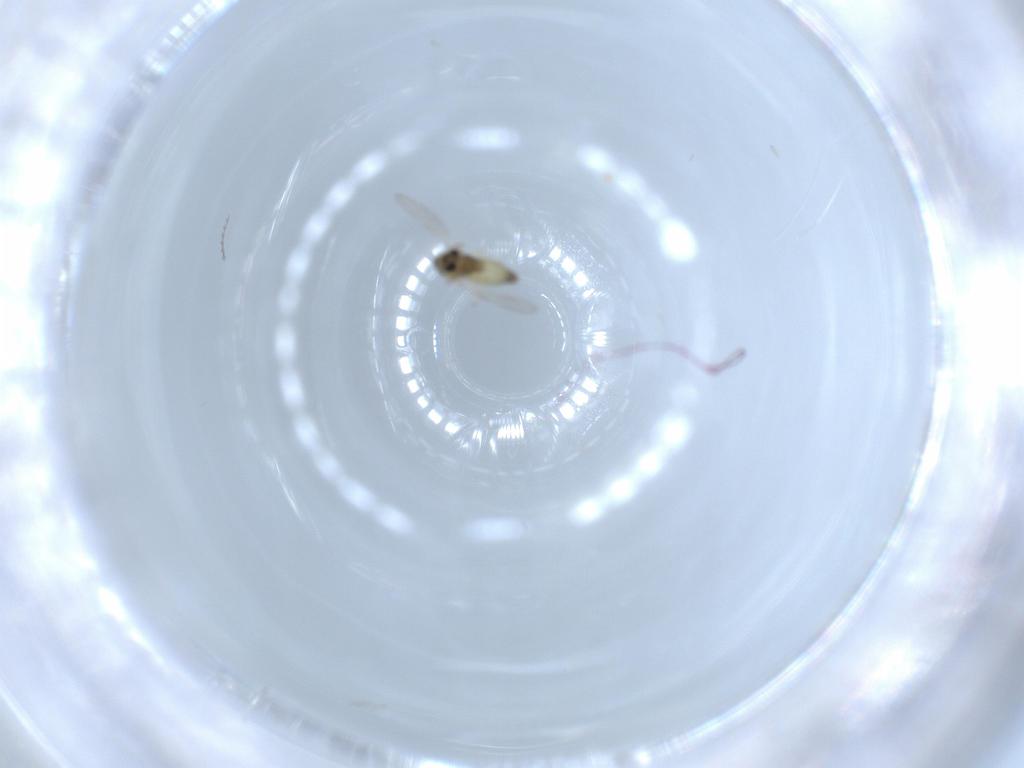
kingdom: Animalia
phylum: Arthropoda
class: Insecta
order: Diptera
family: Chironomidae
